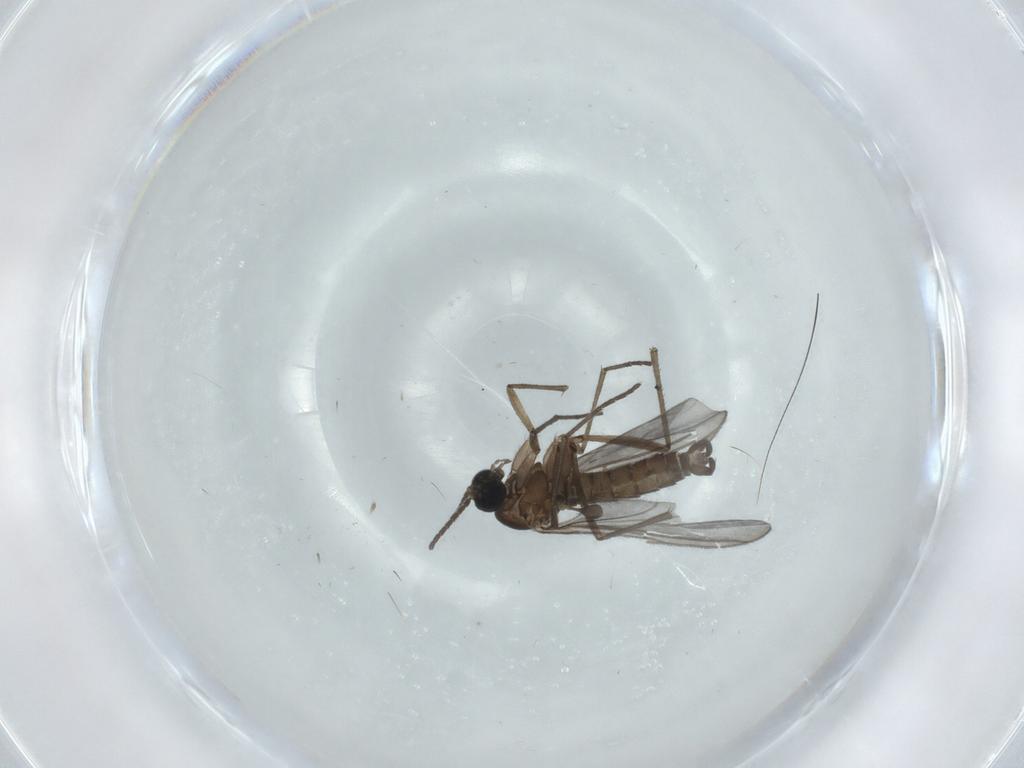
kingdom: Animalia
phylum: Arthropoda
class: Insecta
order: Diptera
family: Sciaridae
